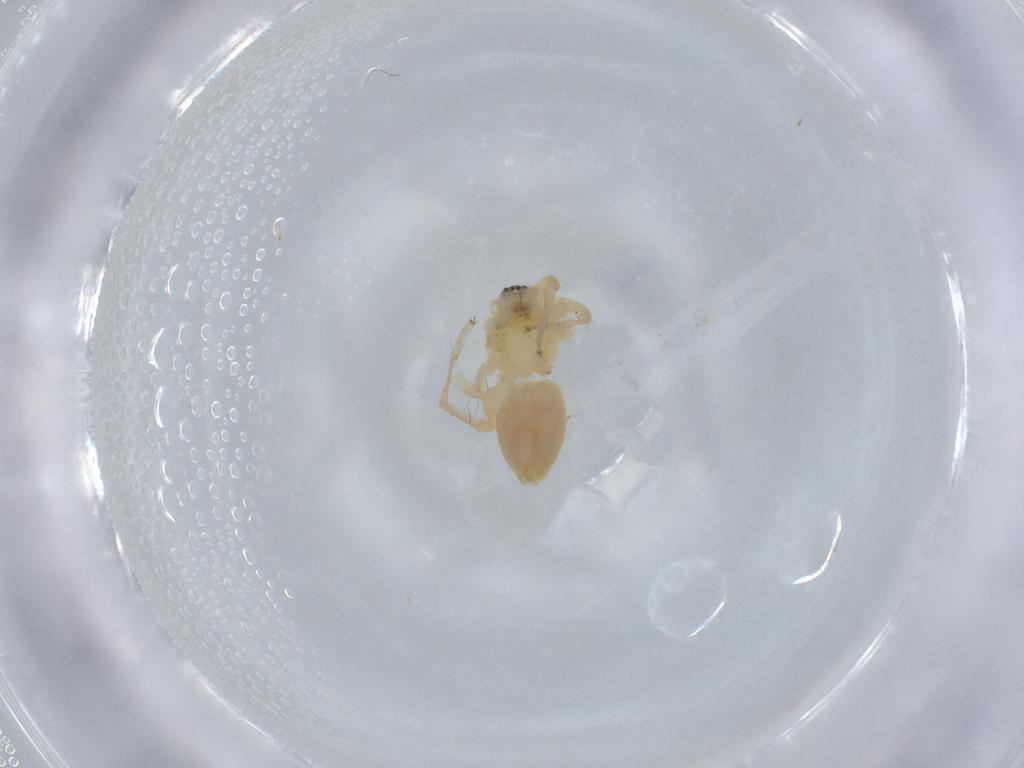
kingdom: Animalia
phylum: Arthropoda
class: Arachnida
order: Araneae
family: Anyphaenidae
